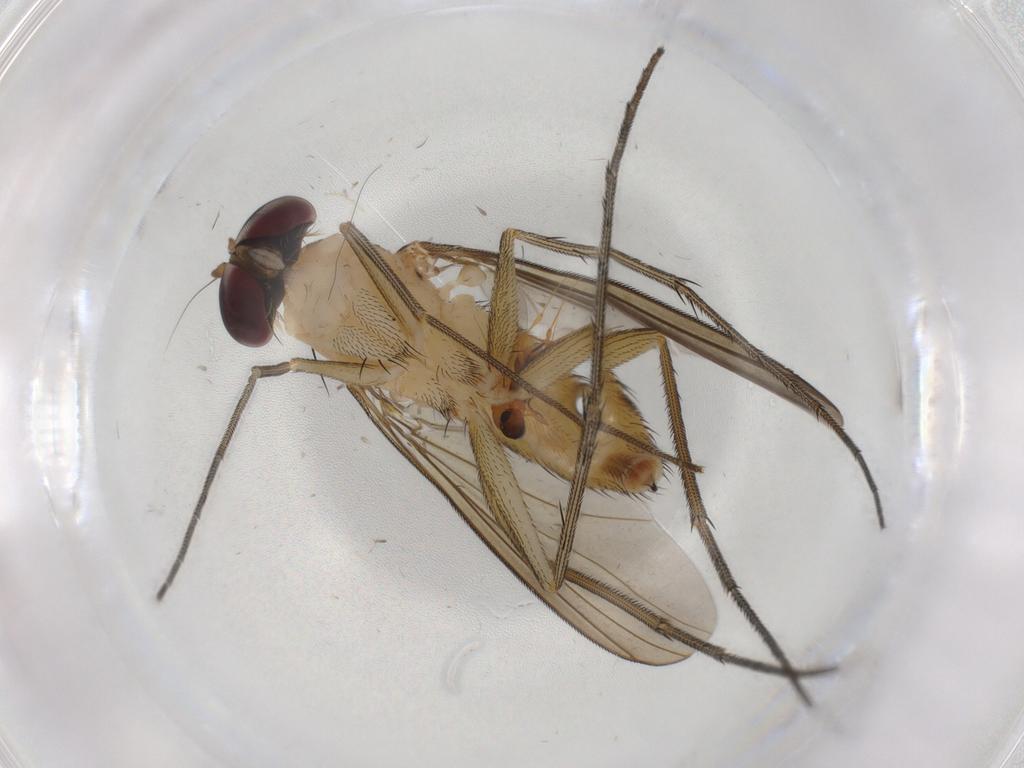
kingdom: Animalia
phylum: Arthropoda
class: Insecta
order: Diptera
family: Dolichopodidae
